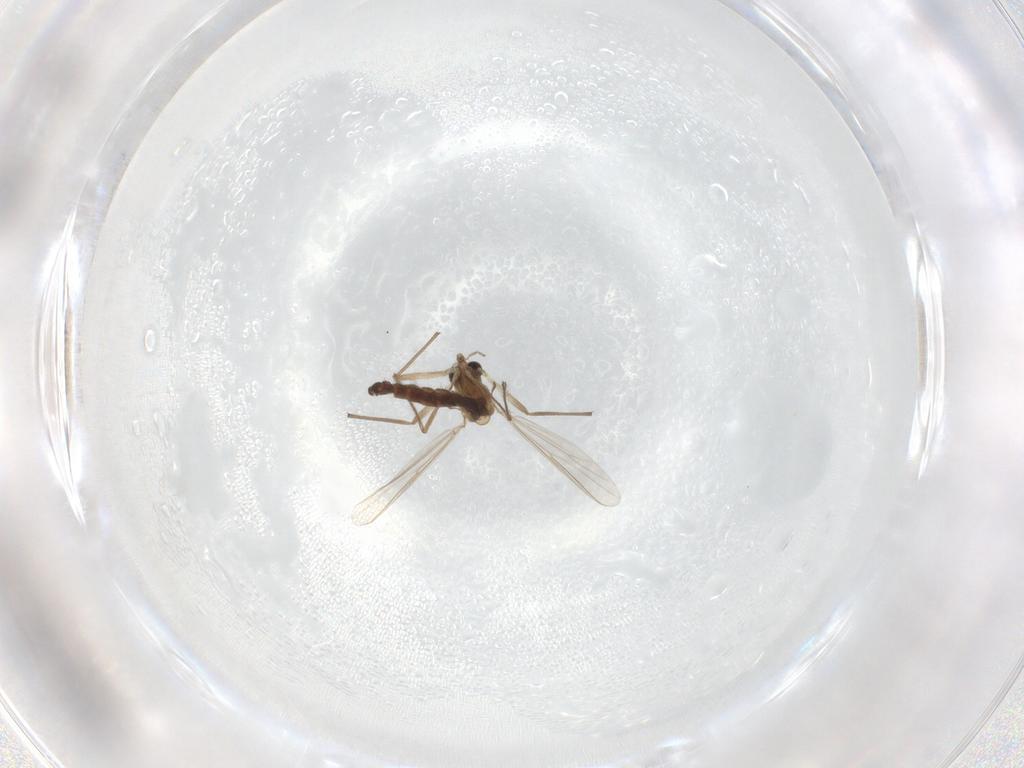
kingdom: Animalia
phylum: Arthropoda
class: Insecta
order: Diptera
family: Chironomidae
